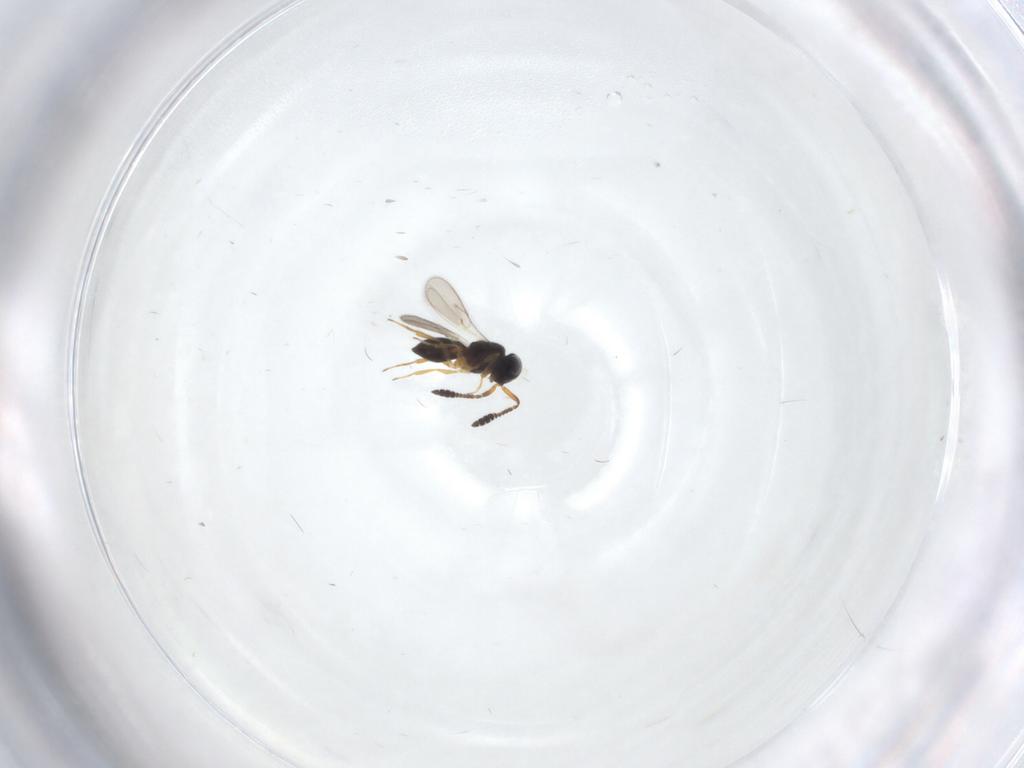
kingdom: Animalia
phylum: Arthropoda
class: Insecta
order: Hymenoptera
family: Scelionidae
